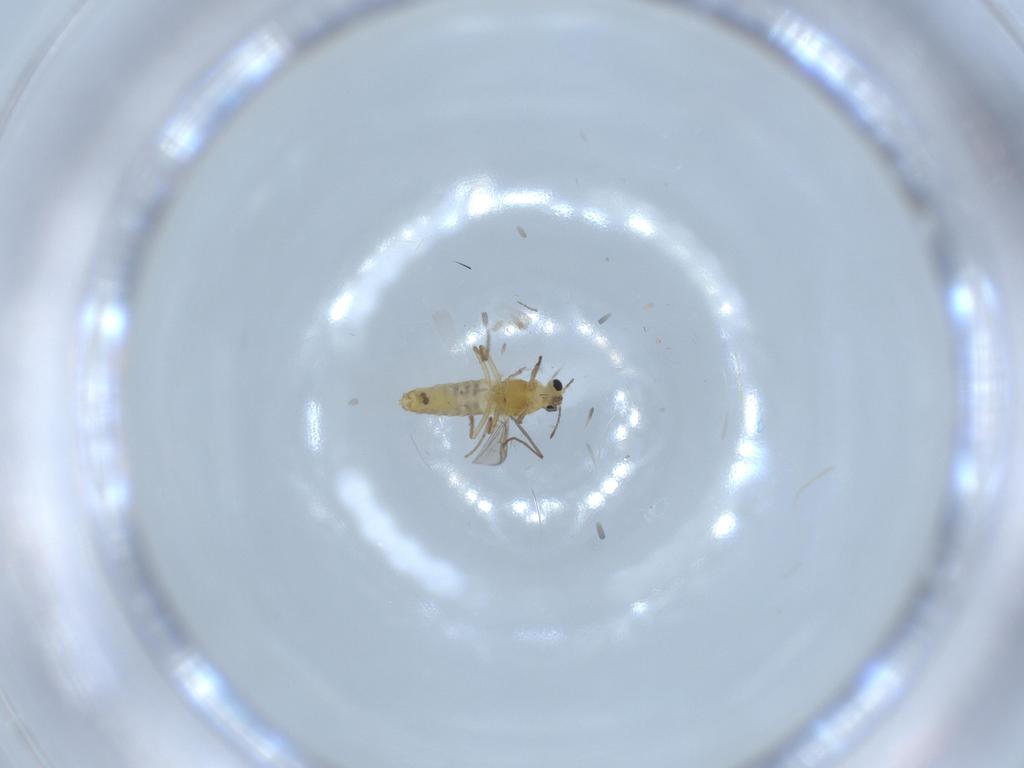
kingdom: Animalia
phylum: Arthropoda
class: Insecta
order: Diptera
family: Chironomidae
